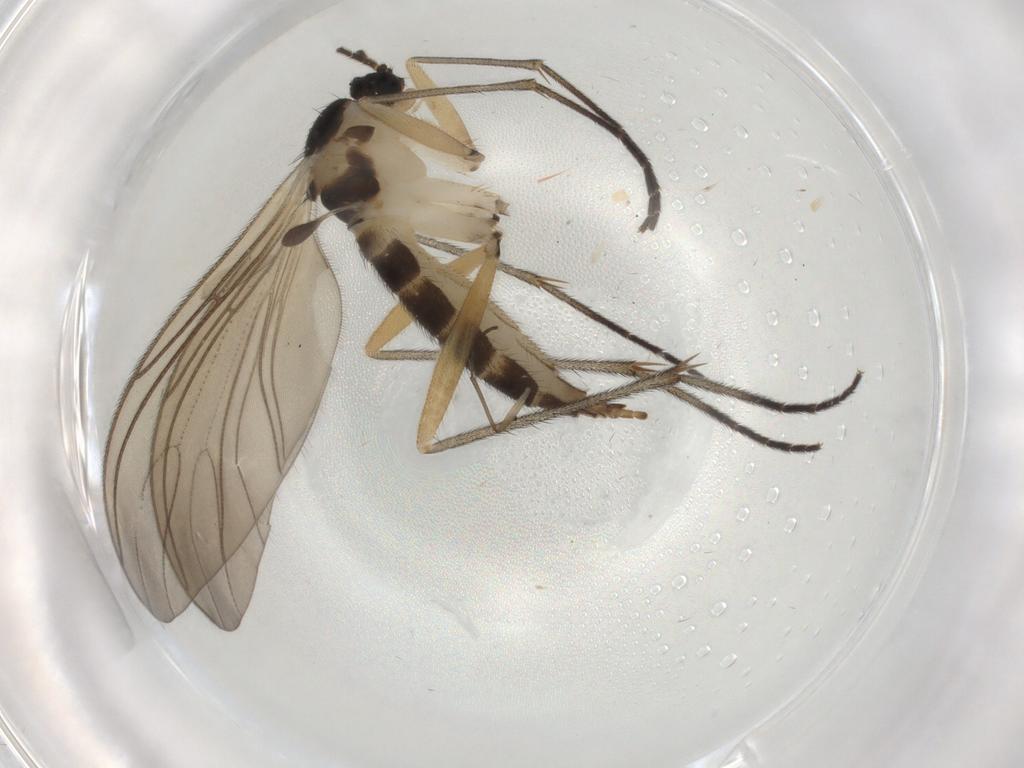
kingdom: Animalia
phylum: Arthropoda
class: Insecta
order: Diptera
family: Sciaridae
